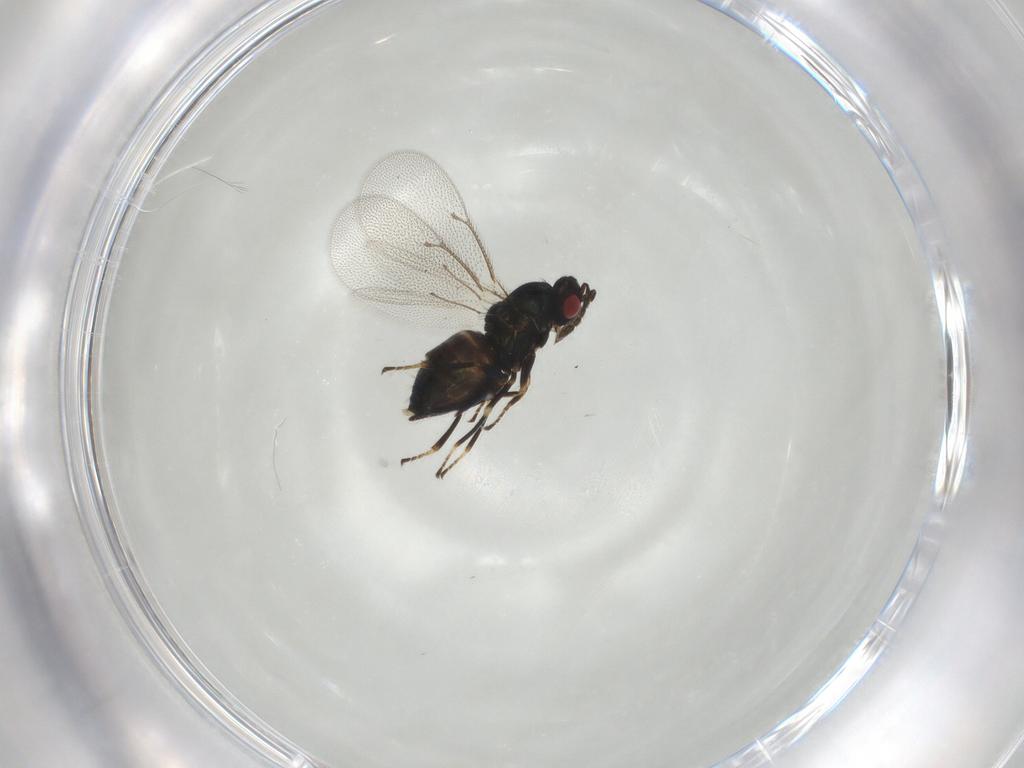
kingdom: Animalia
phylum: Arthropoda
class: Insecta
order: Hymenoptera
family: Eulophidae
